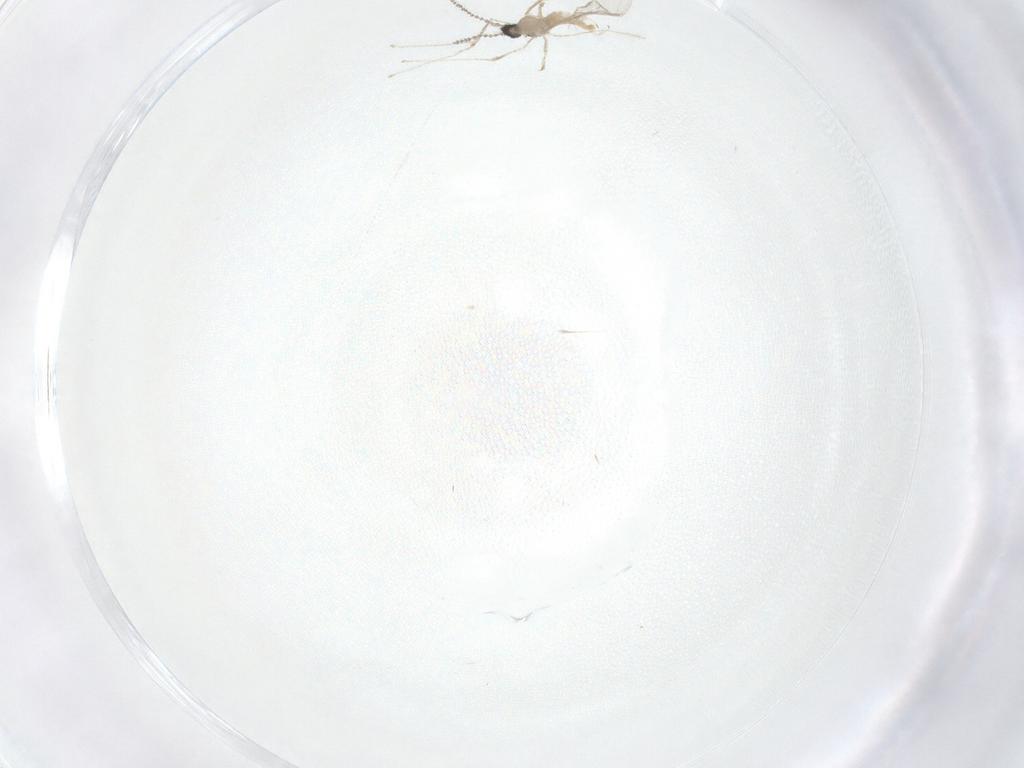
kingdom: Animalia
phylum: Arthropoda
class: Insecta
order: Diptera
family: Cecidomyiidae
